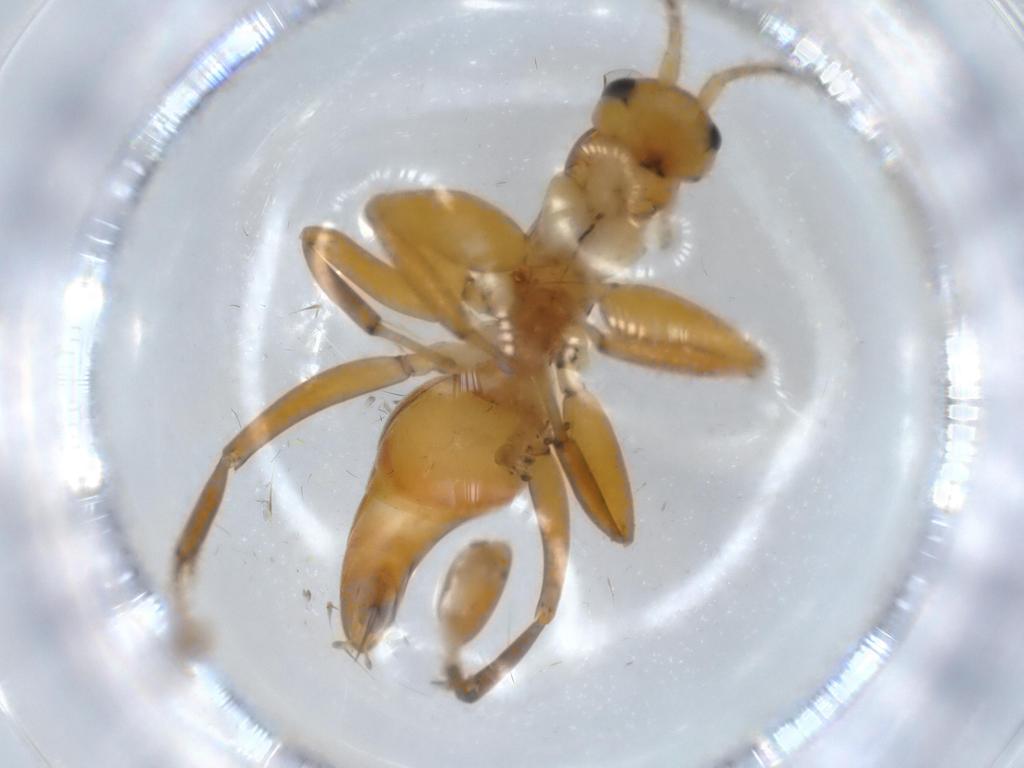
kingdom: Animalia
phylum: Arthropoda
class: Insecta
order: Hymenoptera
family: Rhopalosomatidae
